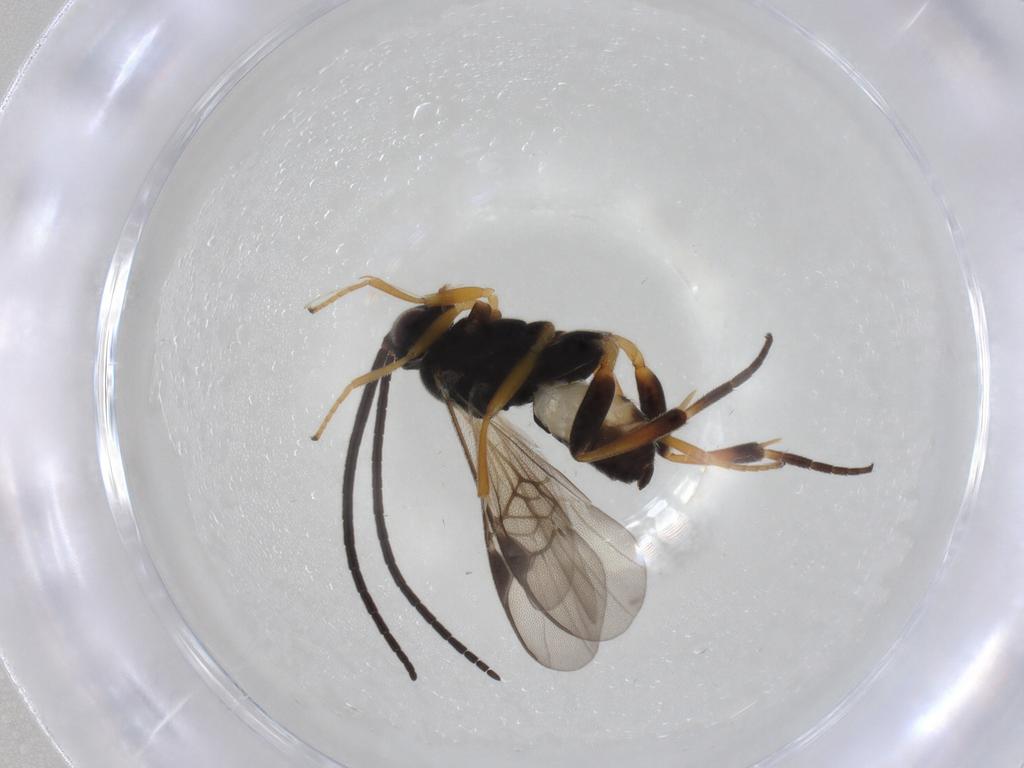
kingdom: Animalia
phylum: Arthropoda
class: Insecta
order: Hymenoptera
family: Braconidae
